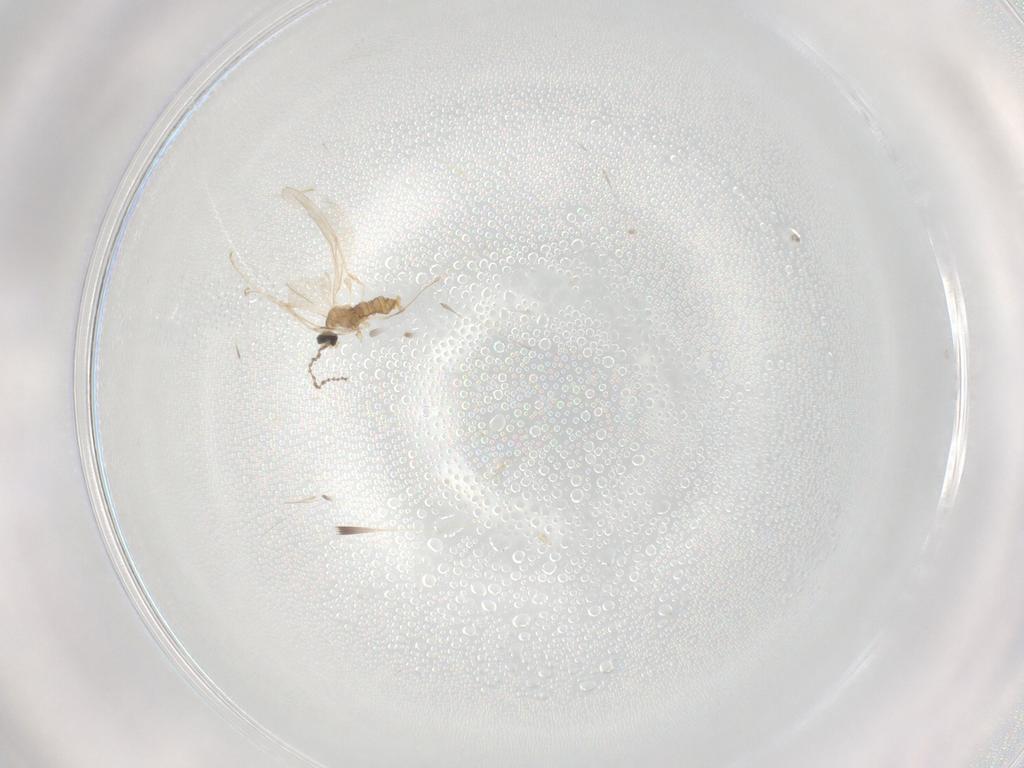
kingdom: Animalia
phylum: Arthropoda
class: Insecta
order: Diptera
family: Cecidomyiidae
